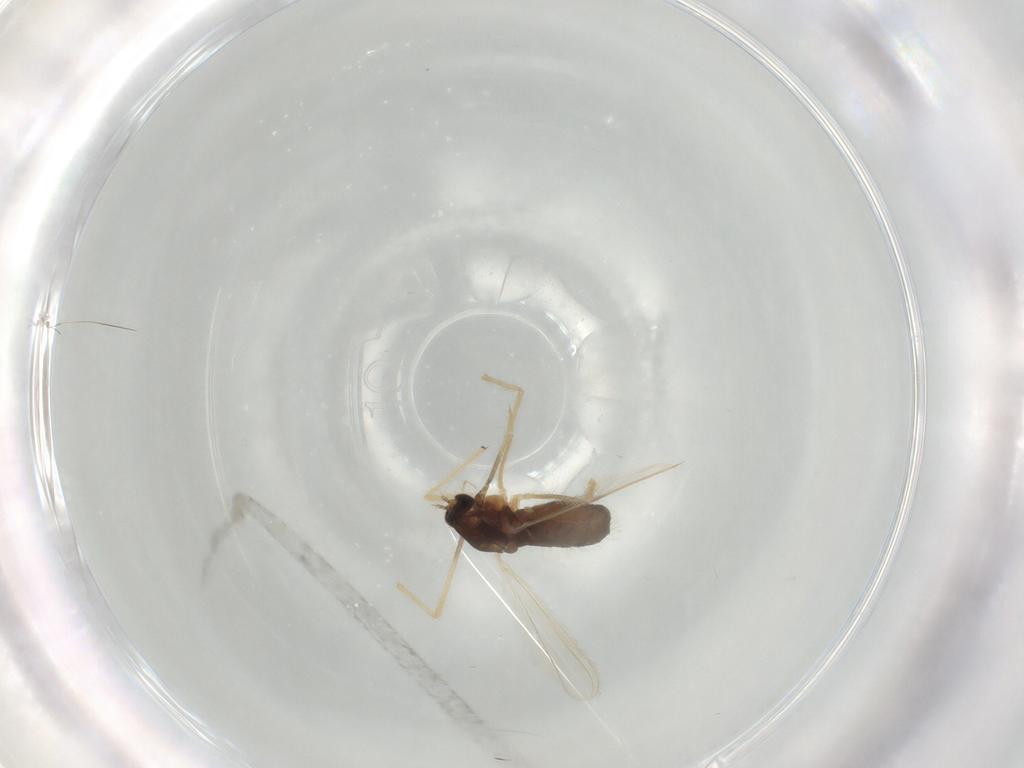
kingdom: Animalia
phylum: Arthropoda
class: Insecta
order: Diptera
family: Chironomidae
